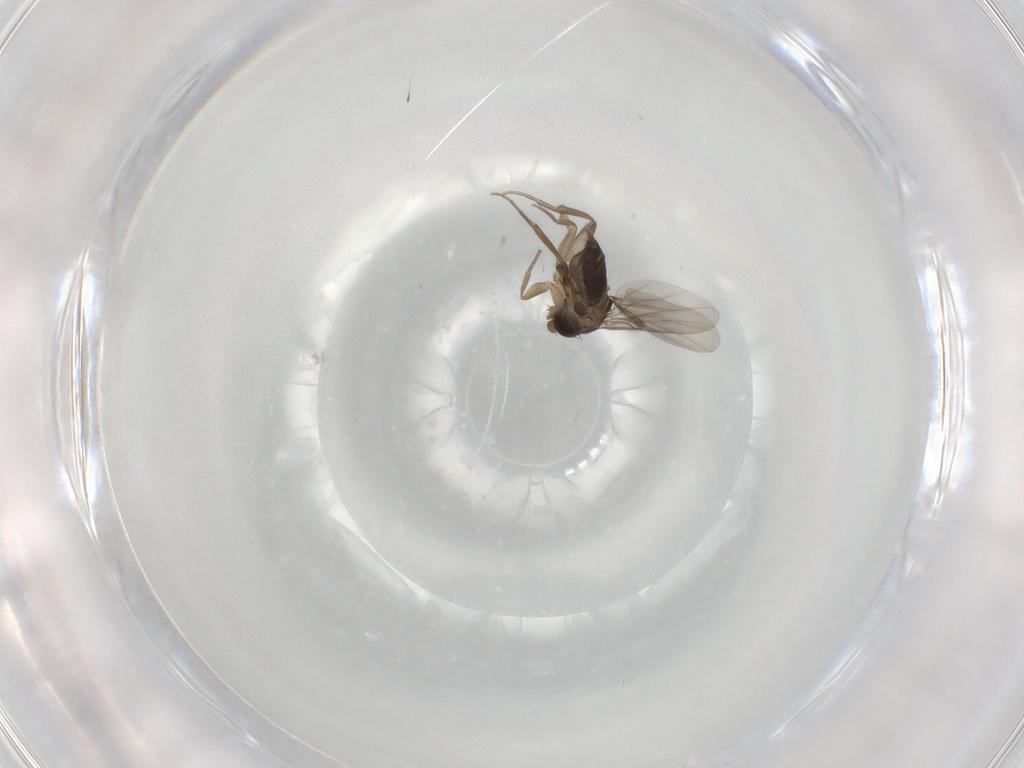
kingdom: Animalia
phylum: Arthropoda
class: Insecta
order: Diptera
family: Phoridae
